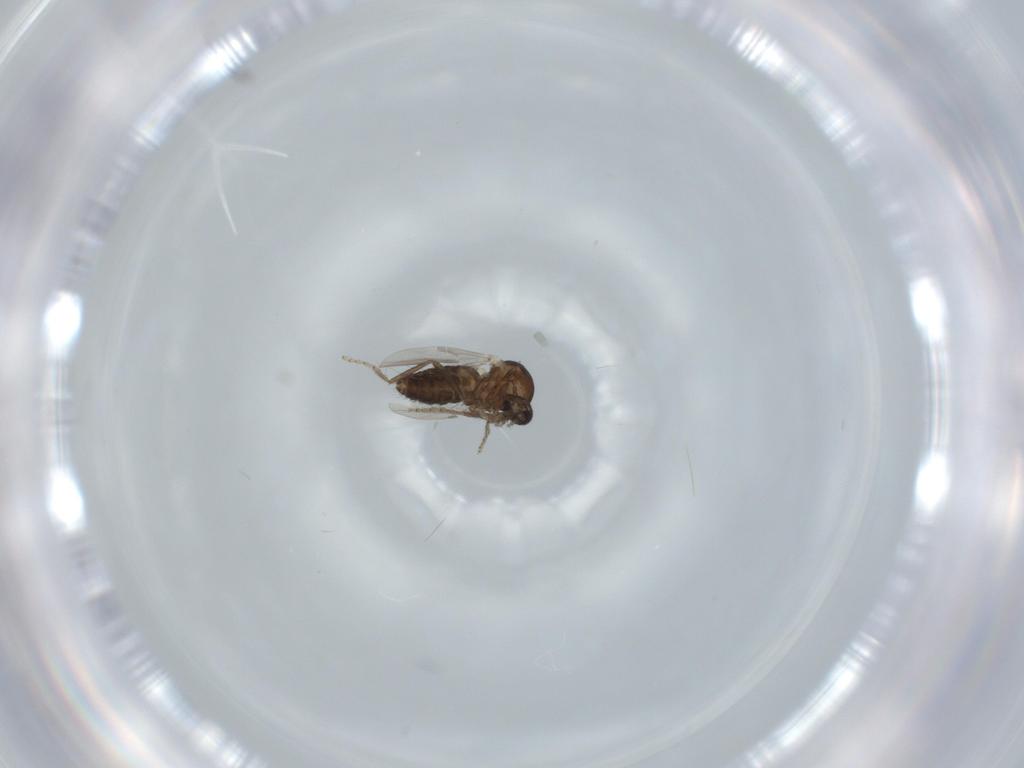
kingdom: Animalia
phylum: Arthropoda
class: Insecta
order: Diptera
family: Ceratopogonidae
